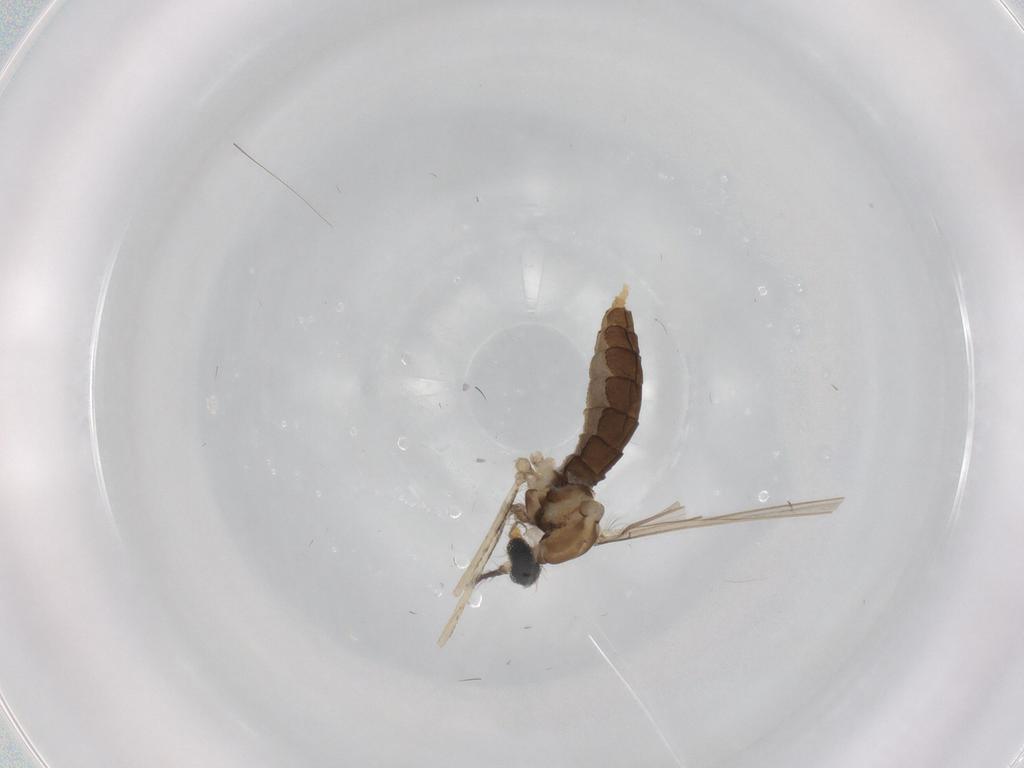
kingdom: Animalia
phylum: Arthropoda
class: Insecta
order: Diptera
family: Cecidomyiidae
